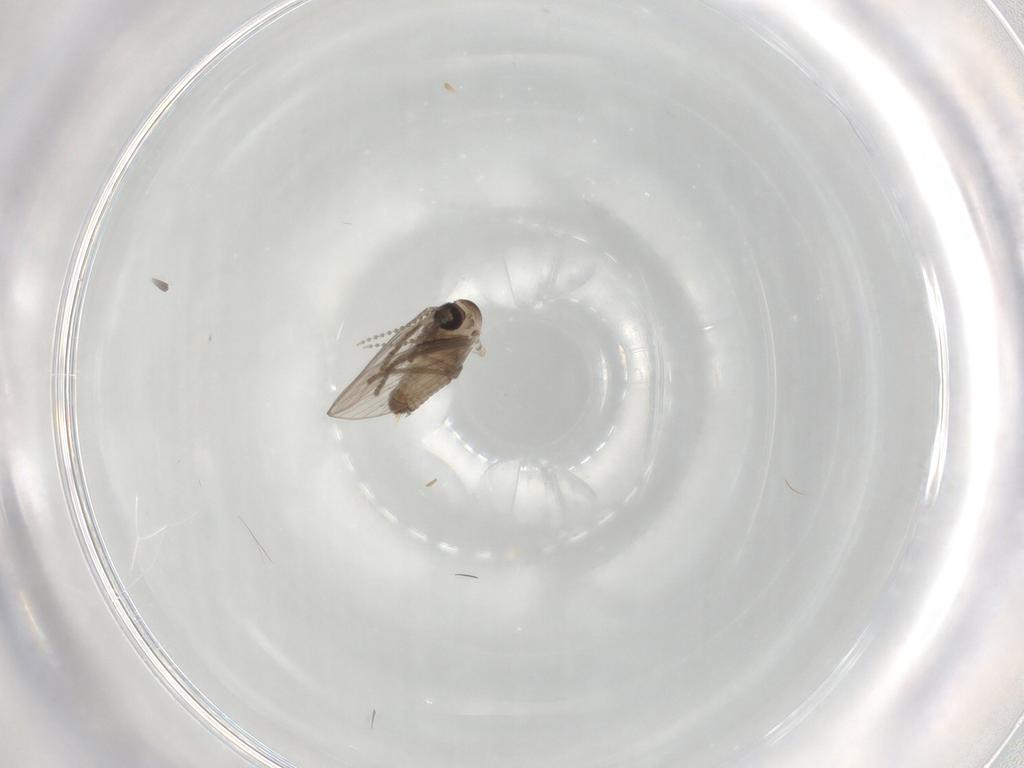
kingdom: Animalia
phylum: Arthropoda
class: Insecta
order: Diptera
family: Psychodidae
